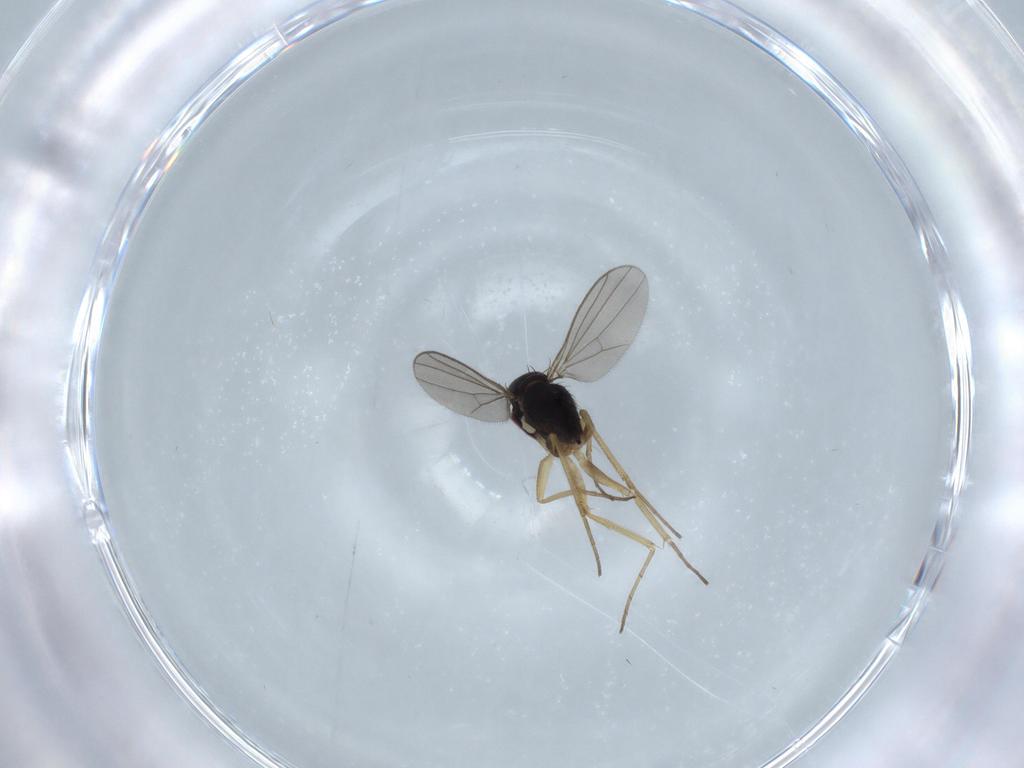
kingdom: Animalia
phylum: Arthropoda
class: Insecta
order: Diptera
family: Dolichopodidae
